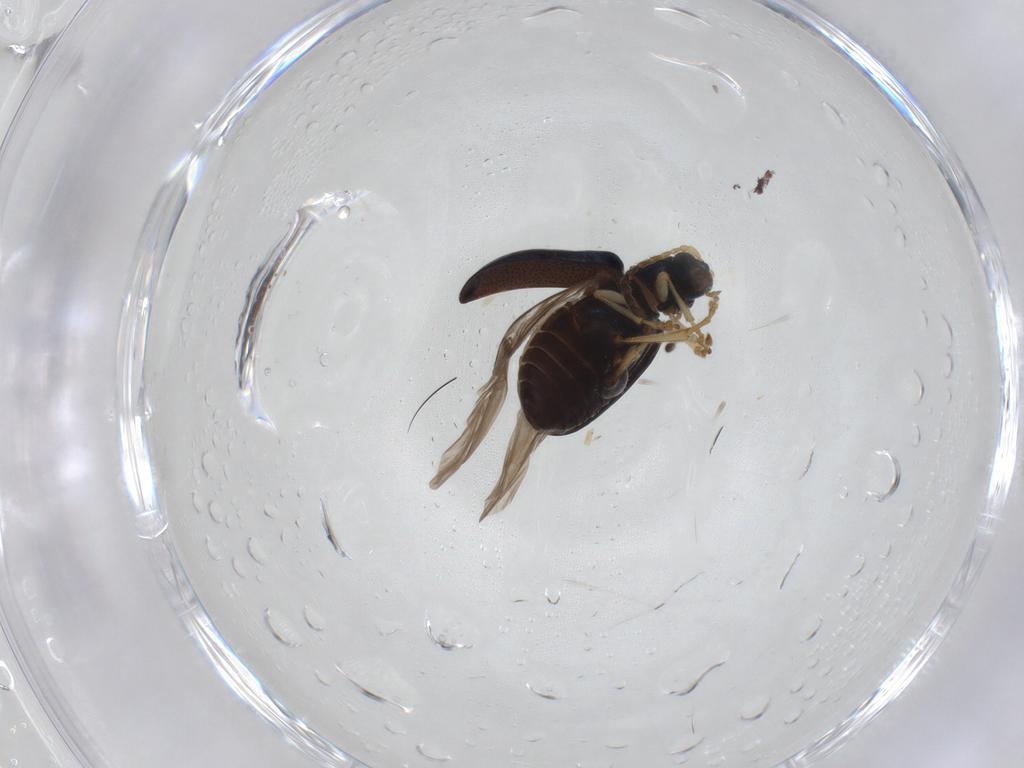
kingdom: Animalia
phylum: Arthropoda
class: Insecta
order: Coleoptera
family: Chrysomelidae
